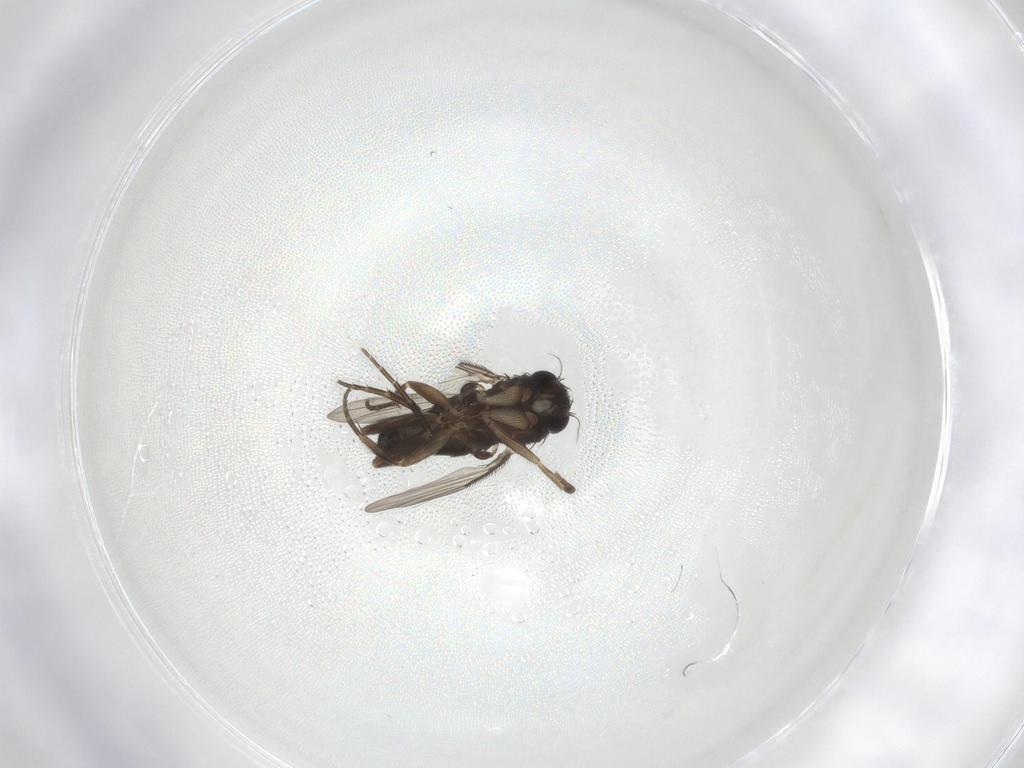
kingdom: Animalia
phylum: Arthropoda
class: Insecta
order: Diptera
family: Phoridae
